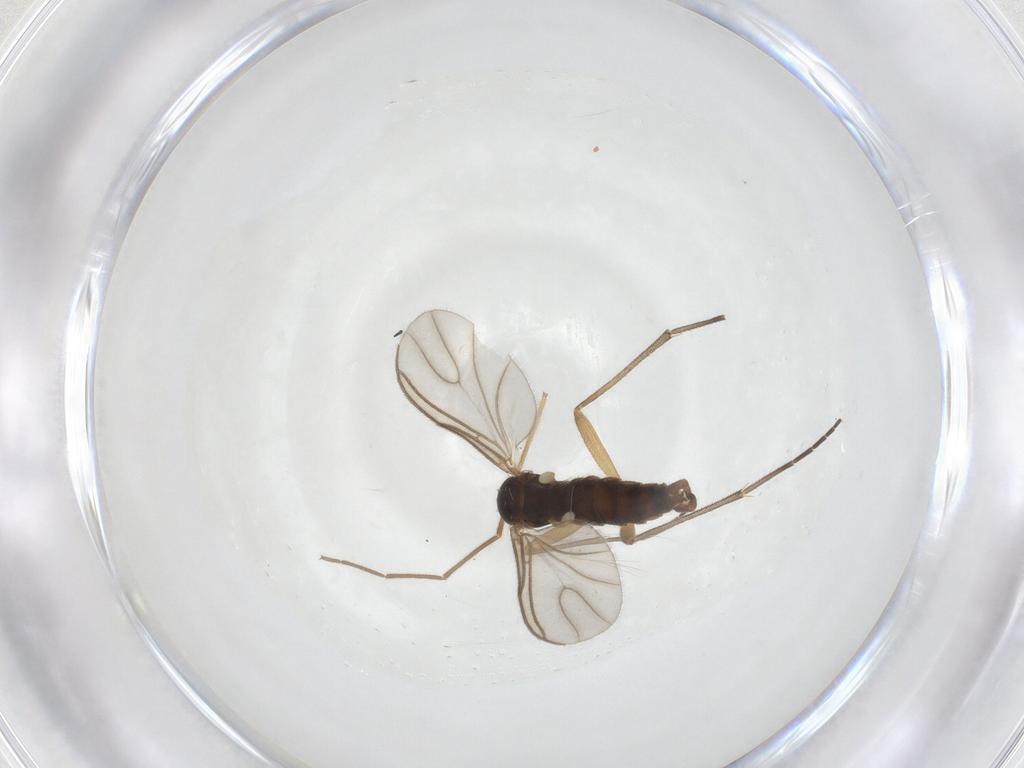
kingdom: Animalia
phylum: Arthropoda
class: Insecta
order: Diptera
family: Sciaridae
